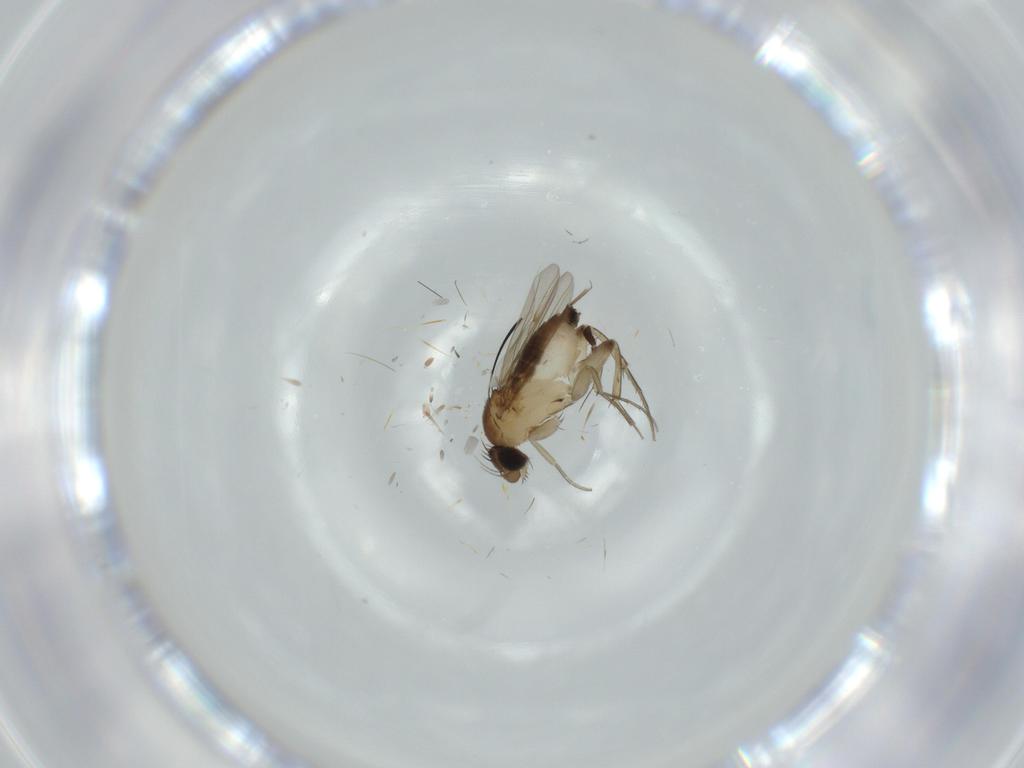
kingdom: Animalia
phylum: Arthropoda
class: Insecta
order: Diptera
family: Phoridae
